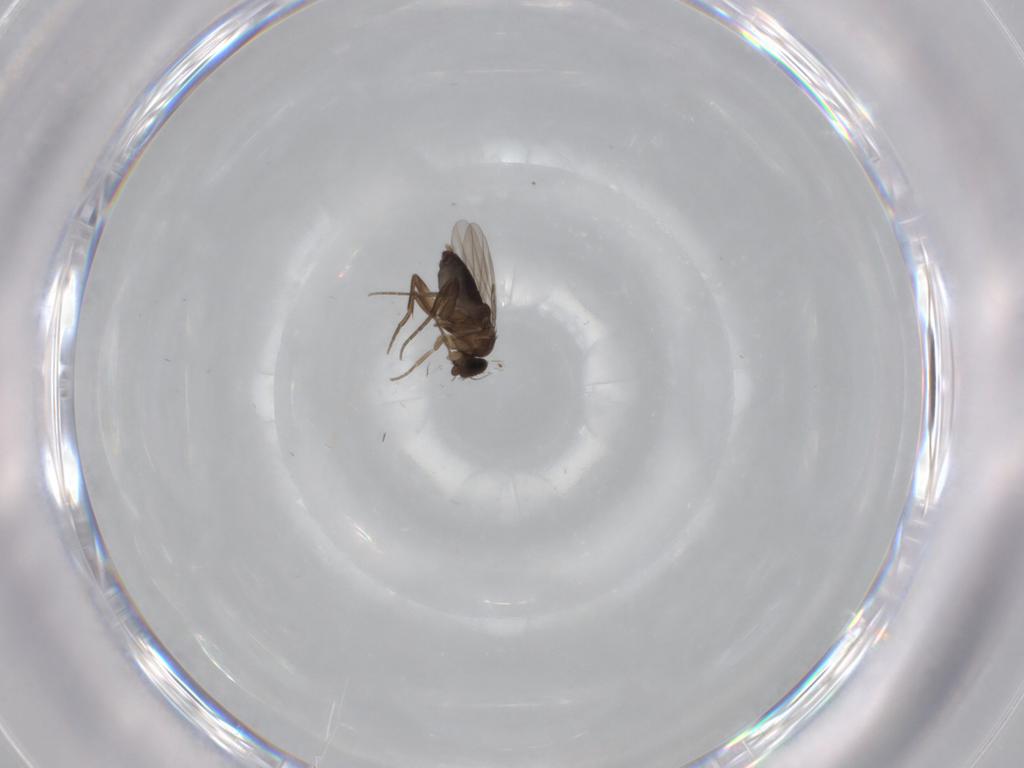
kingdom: Animalia
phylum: Arthropoda
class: Insecta
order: Diptera
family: Phoridae
